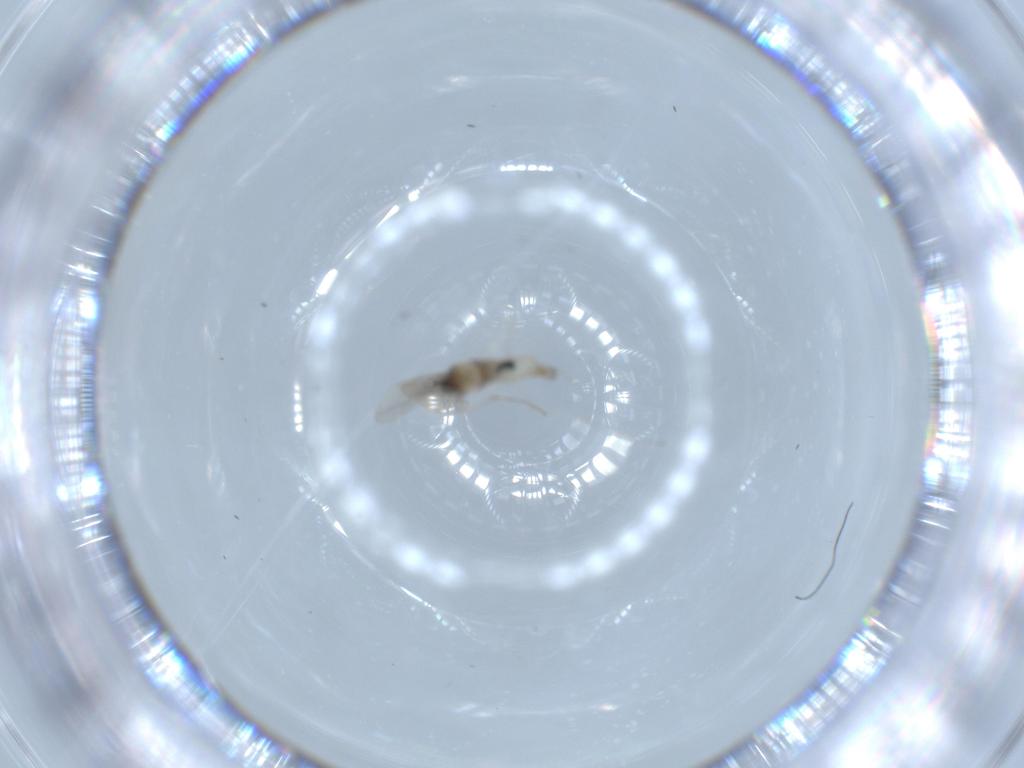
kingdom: Animalia
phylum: Arthropoda
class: Insecta
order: Diptera
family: Cecidomyiidae
